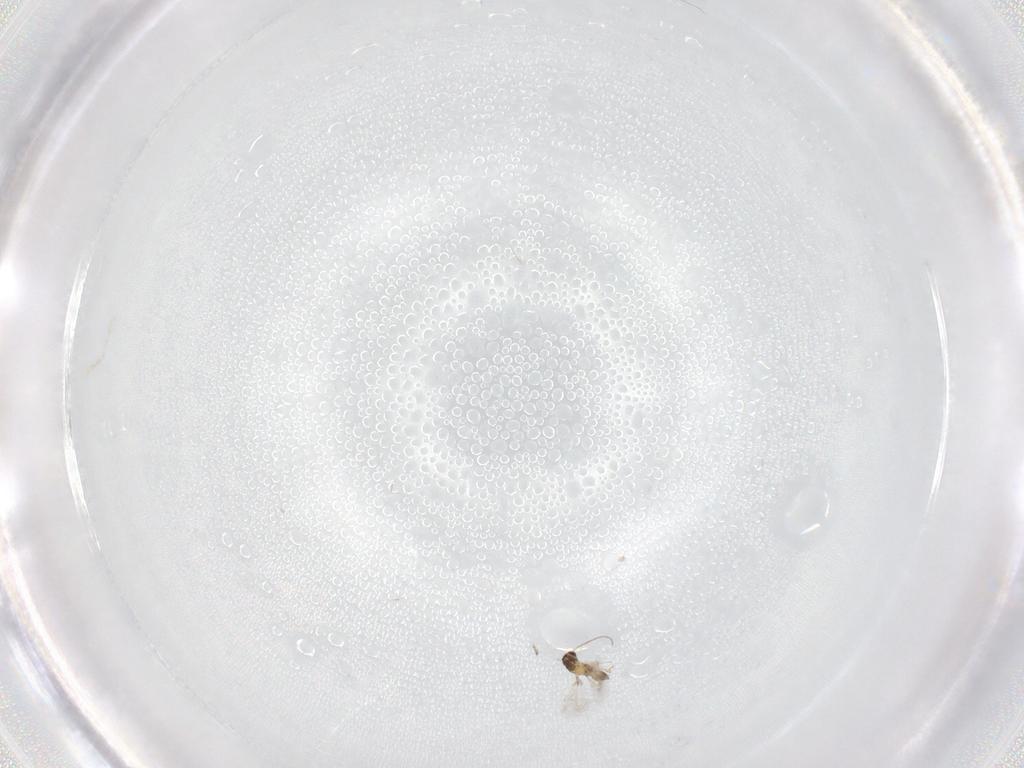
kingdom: Animalia
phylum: Arthropoda
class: Insecta
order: Hymenoptera
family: Mymaridae
